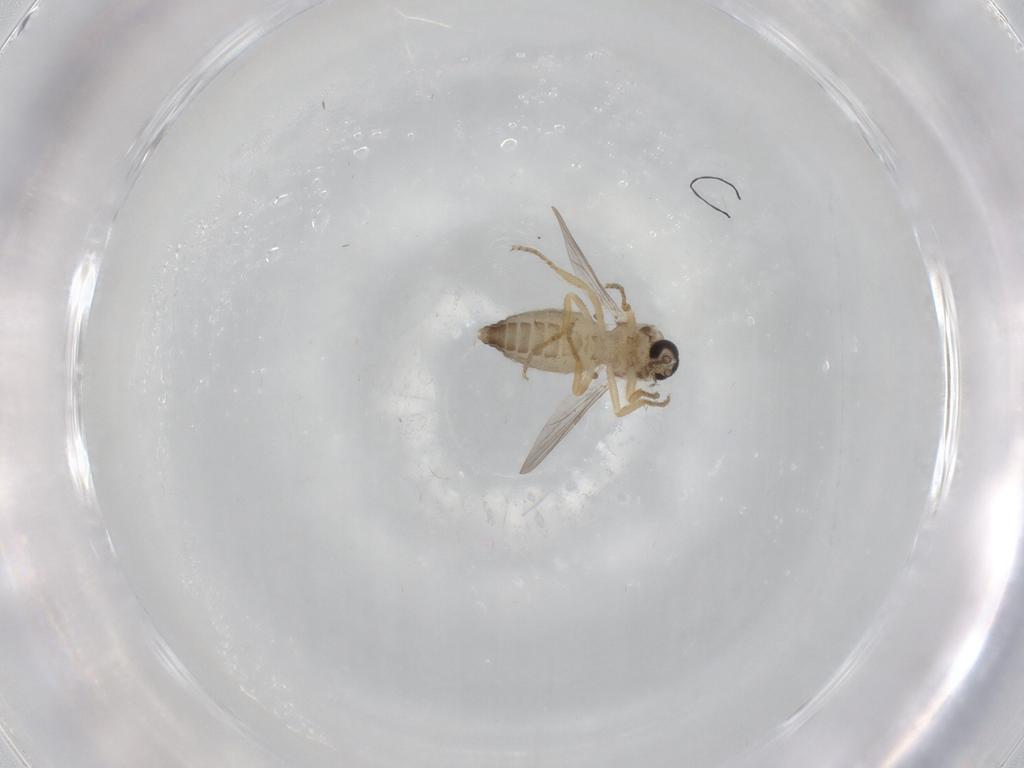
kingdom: Animalia
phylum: Arthropoda
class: Insecta
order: Diptera
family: Ceratopogonidae
